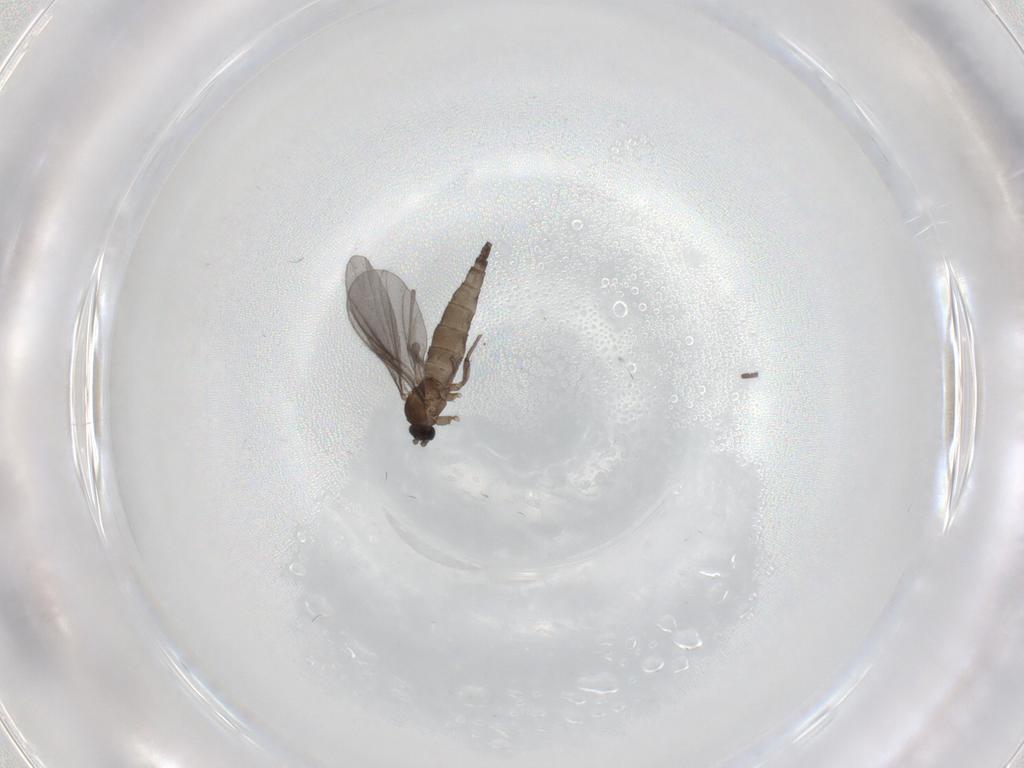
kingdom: Animalia
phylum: Arthropoda
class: Insecta
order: Diptera
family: Sciaridae
